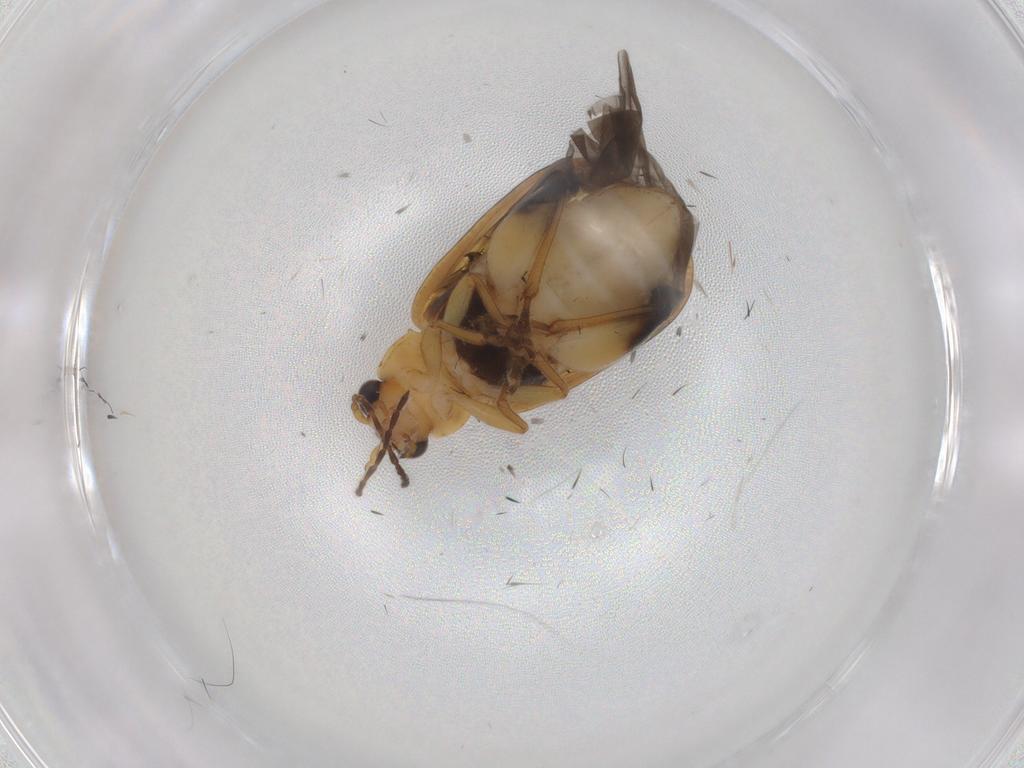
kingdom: Animalia
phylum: Arthropoda
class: Insecta
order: Coleoptera
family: Chrysomelidae
